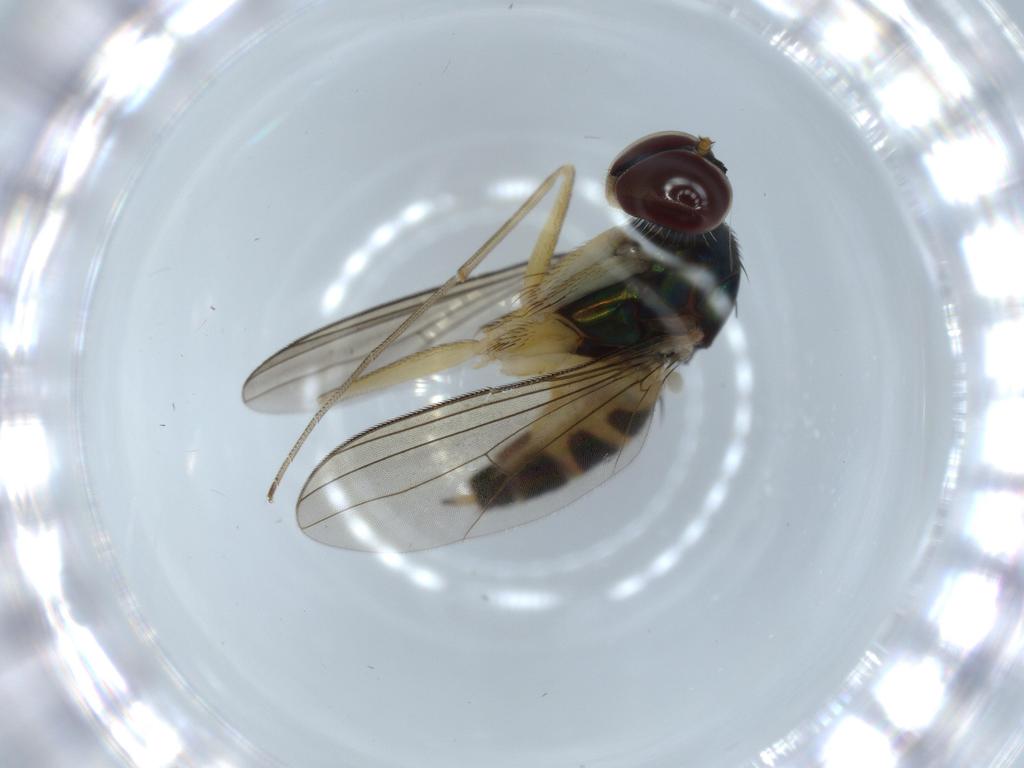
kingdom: Animalia
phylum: Arthropoda
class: Insecta
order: Diptera
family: Dolichopodidae
